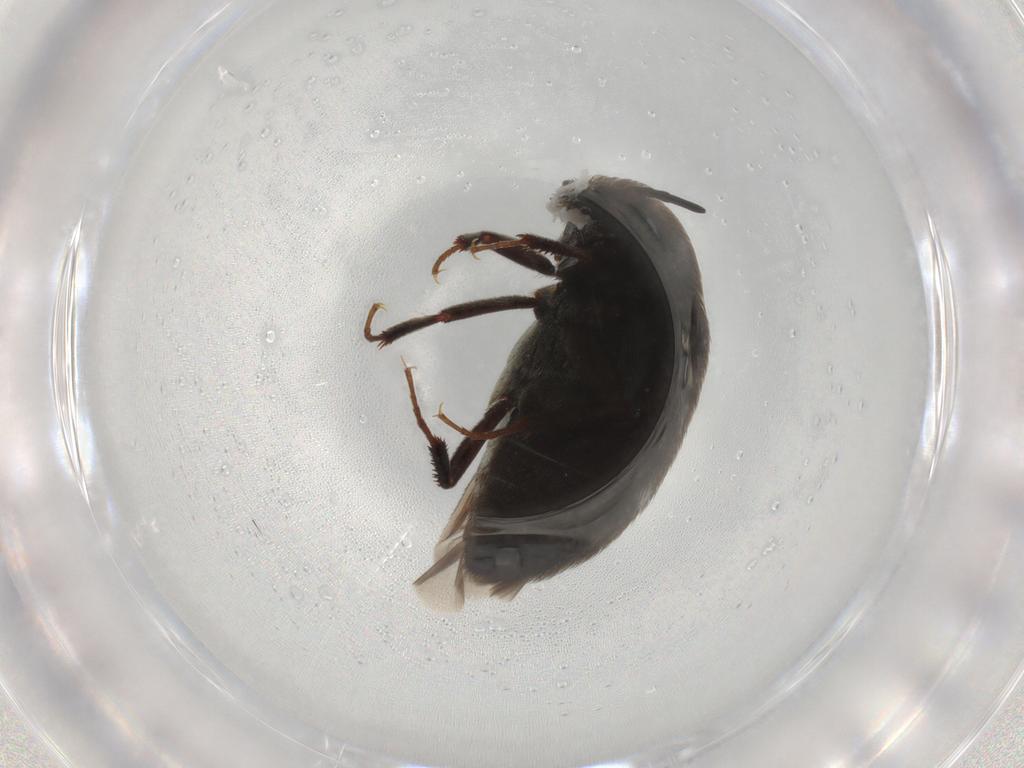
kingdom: Animalia
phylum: Arthropoda
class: Insecta
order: Coleoptera
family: Dermestidae
